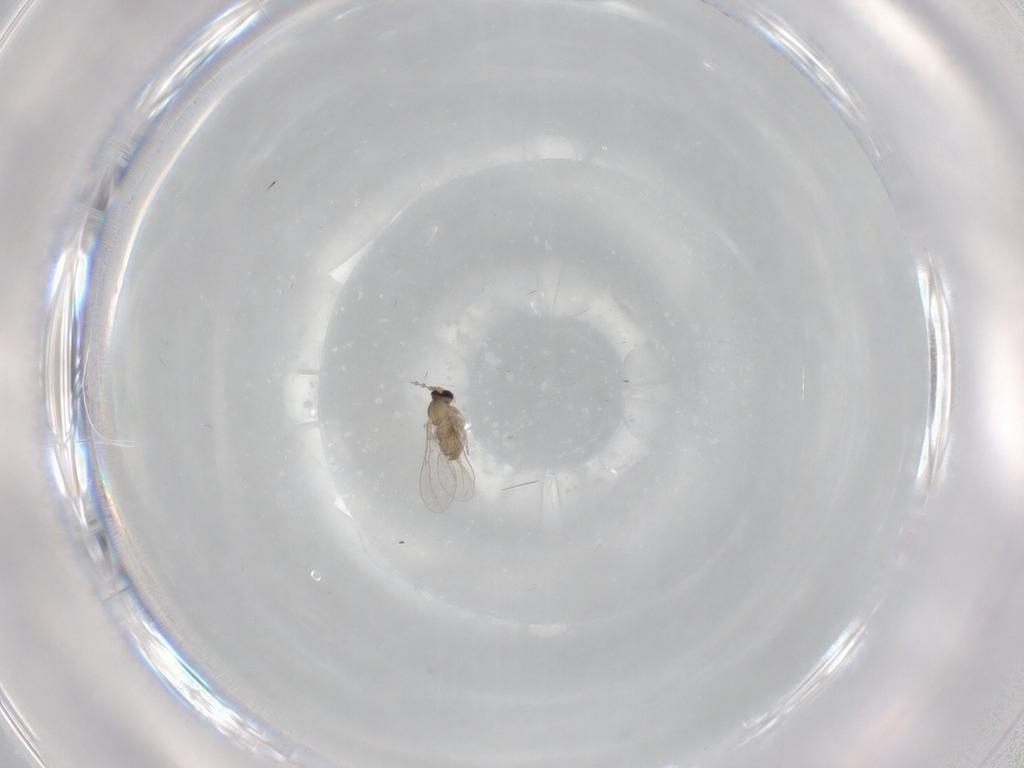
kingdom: Animalia
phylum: Arthropoda
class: Insecta
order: Diptera
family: Cecidomyiidae
